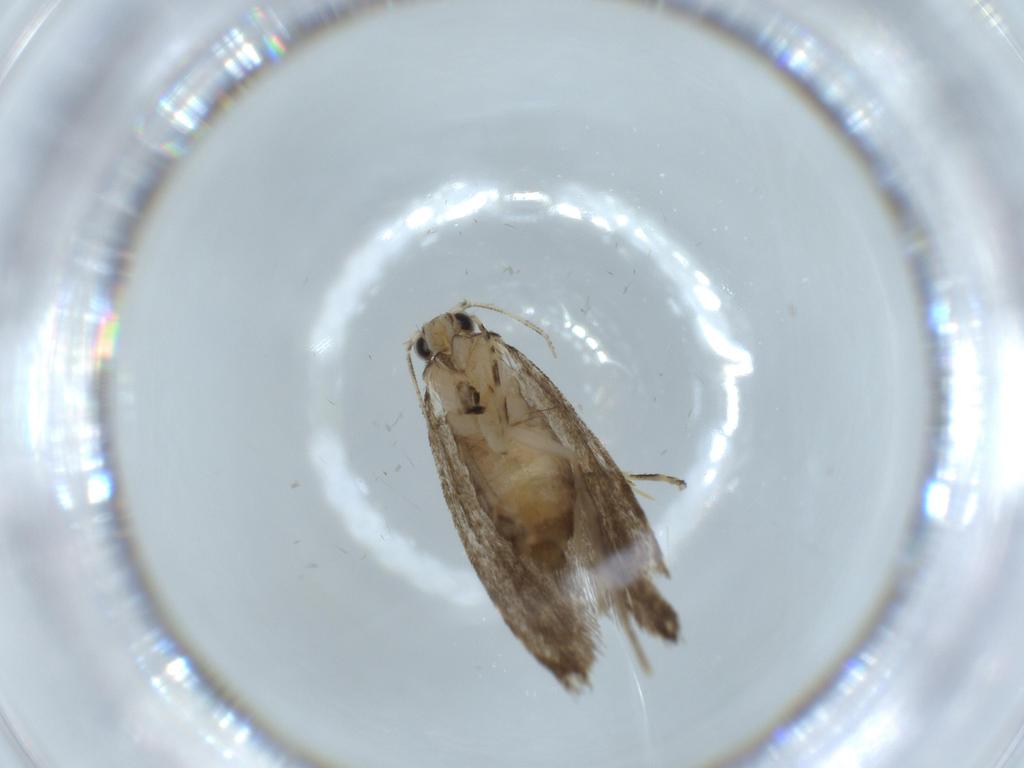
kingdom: Animalia
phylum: Arthropoda
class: Insecta
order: Lepidoptera
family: Tineidae
